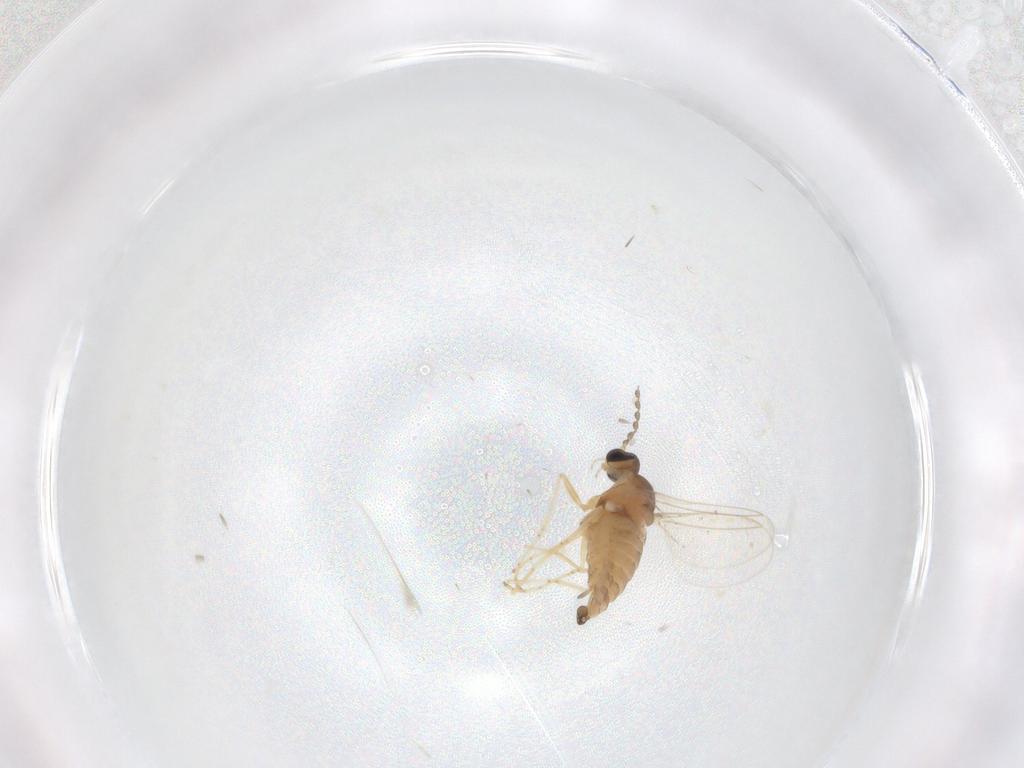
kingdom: Animalia
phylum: Arthropoda
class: Insecta
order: Diptera
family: Cecidomyiidae
